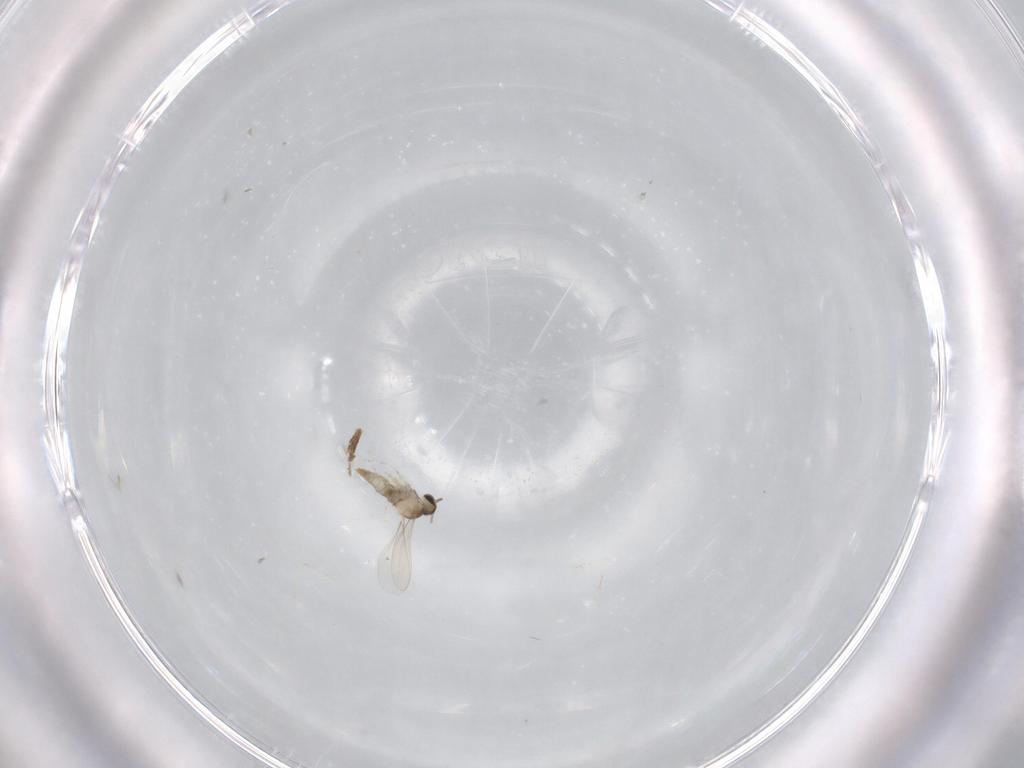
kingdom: Animalia
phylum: Arthropoda
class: Insecta
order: Diptera
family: Cecidomyiidae
